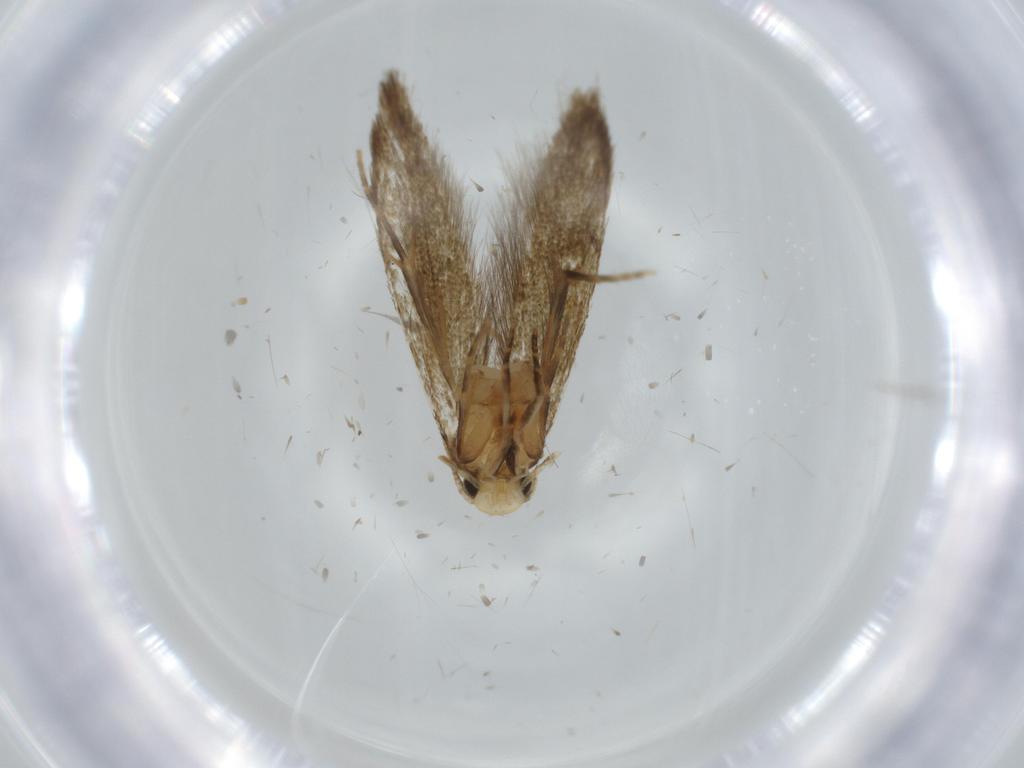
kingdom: Animalia
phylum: Arthropoda
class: Insecta
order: Lepidoptera
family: Tineidae
